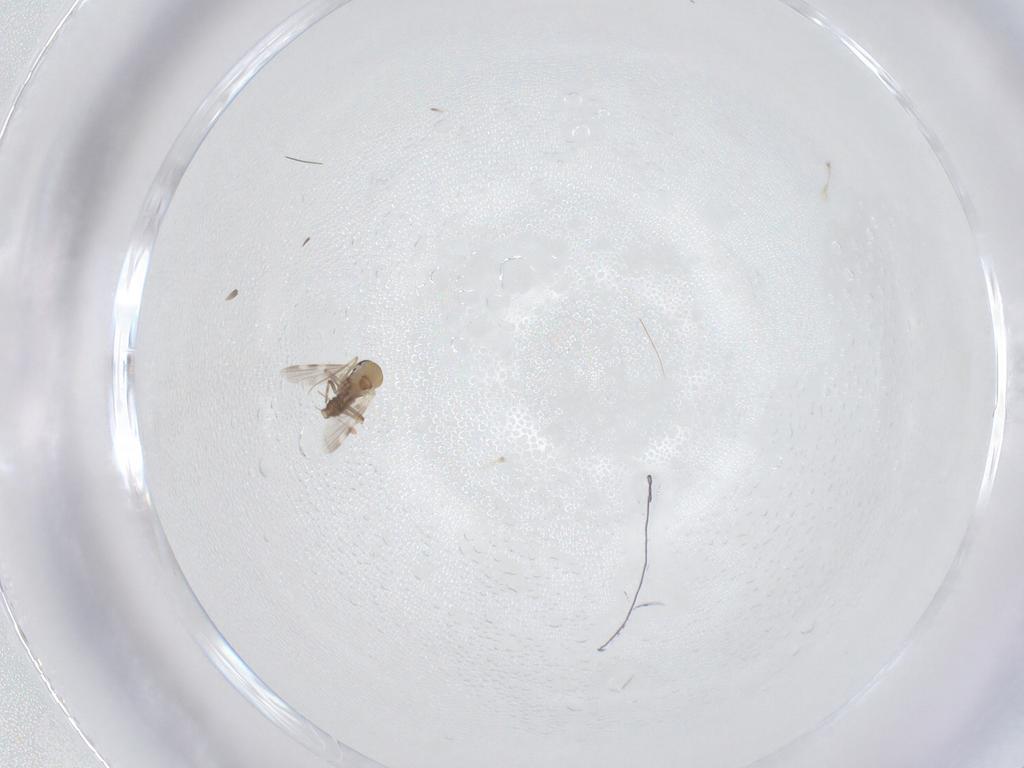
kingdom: Animalia
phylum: Arthropoda
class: Insecta
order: Diptera
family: Ceratopogonidae
